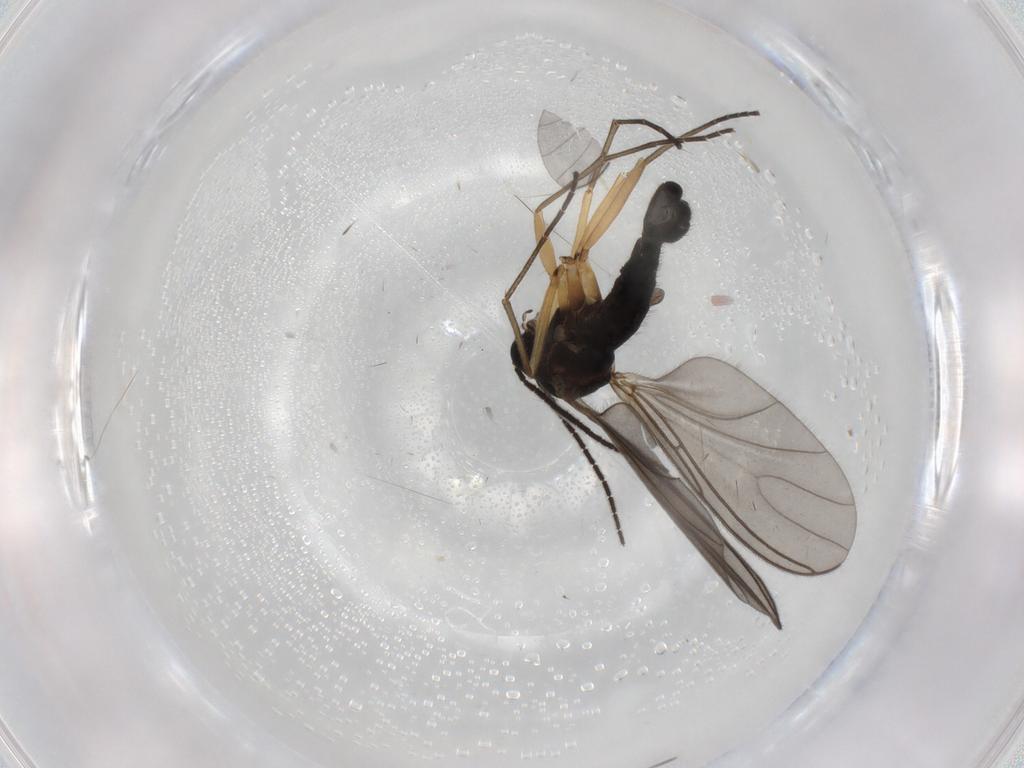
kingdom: Animalia
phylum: Arthropoda
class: Insecta
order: Diptera
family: Sciaridae
